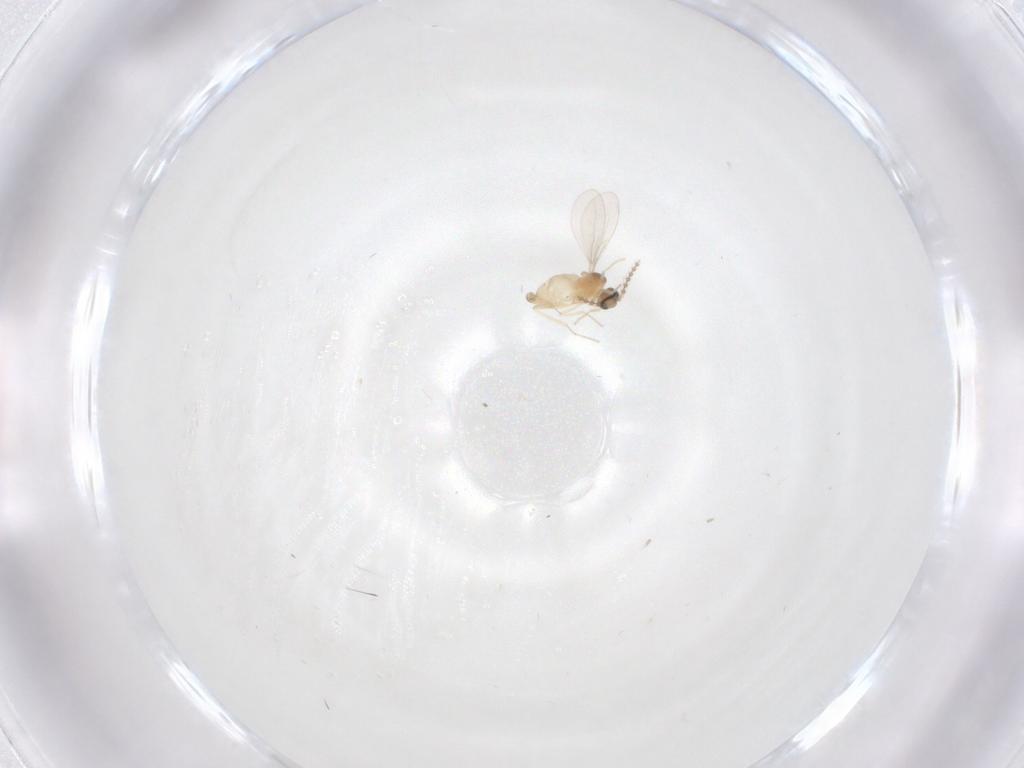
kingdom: Animalia
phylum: Arthropoda
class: Insecta
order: Diptera
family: Cecidomyiidae
